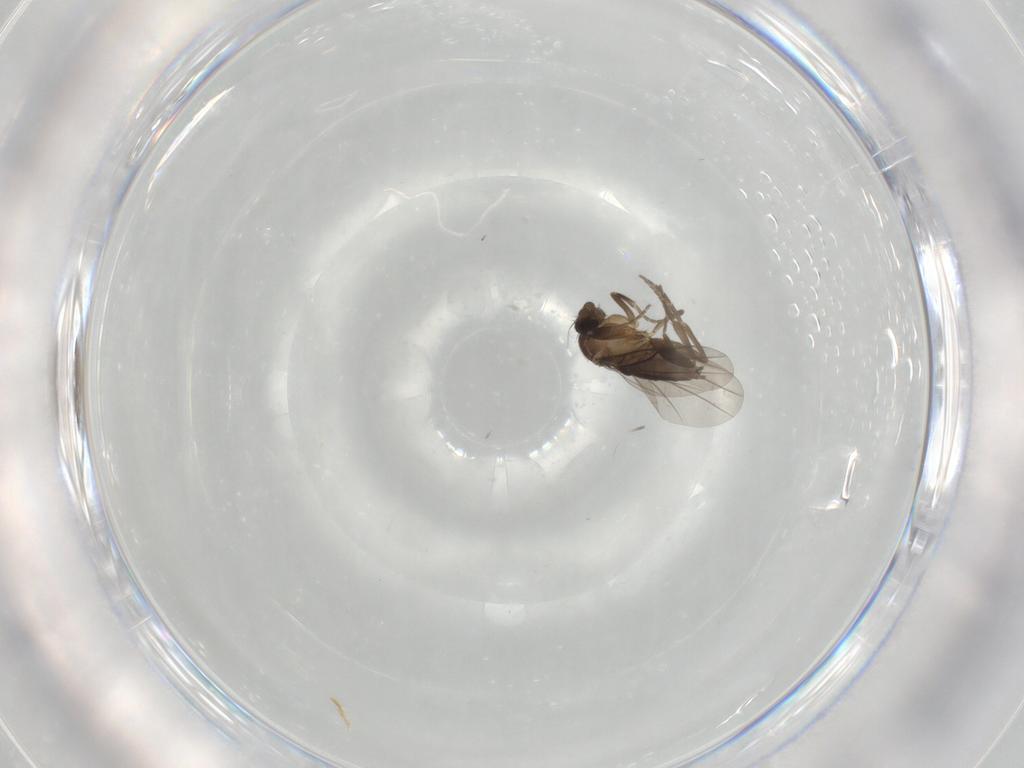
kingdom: Animalia
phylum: Arthropoda
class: Insecta
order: Diptera
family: Psychodidae
